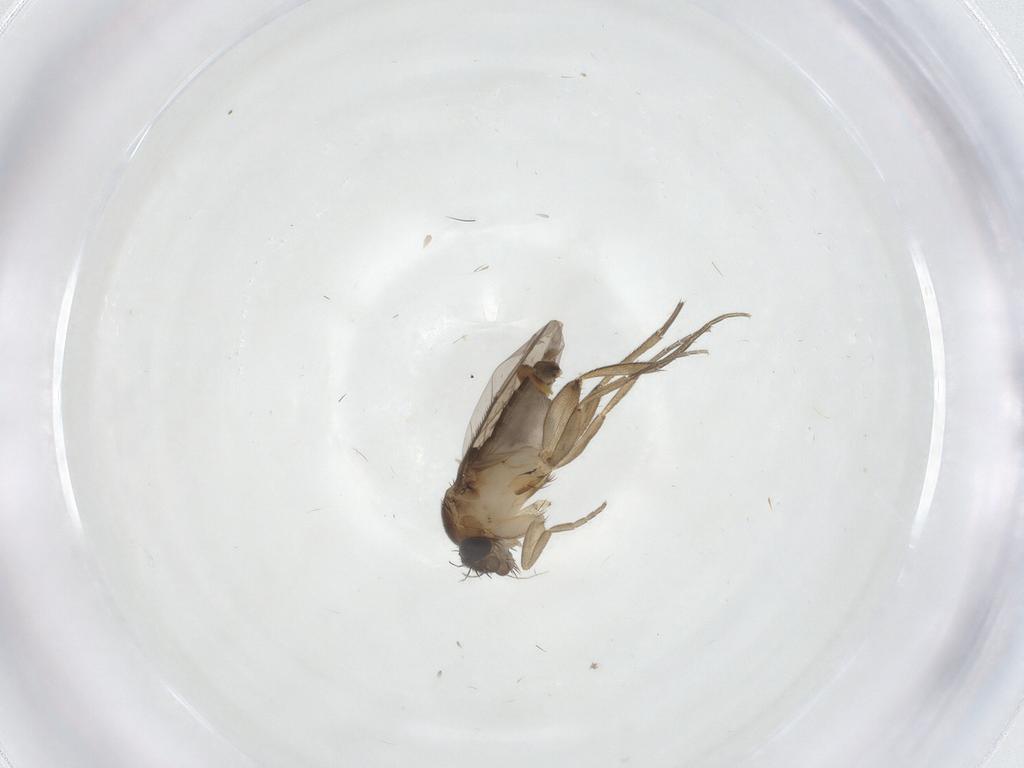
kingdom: Animalia
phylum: Arthropoda
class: Insecta
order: Diptera
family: Phoridae
